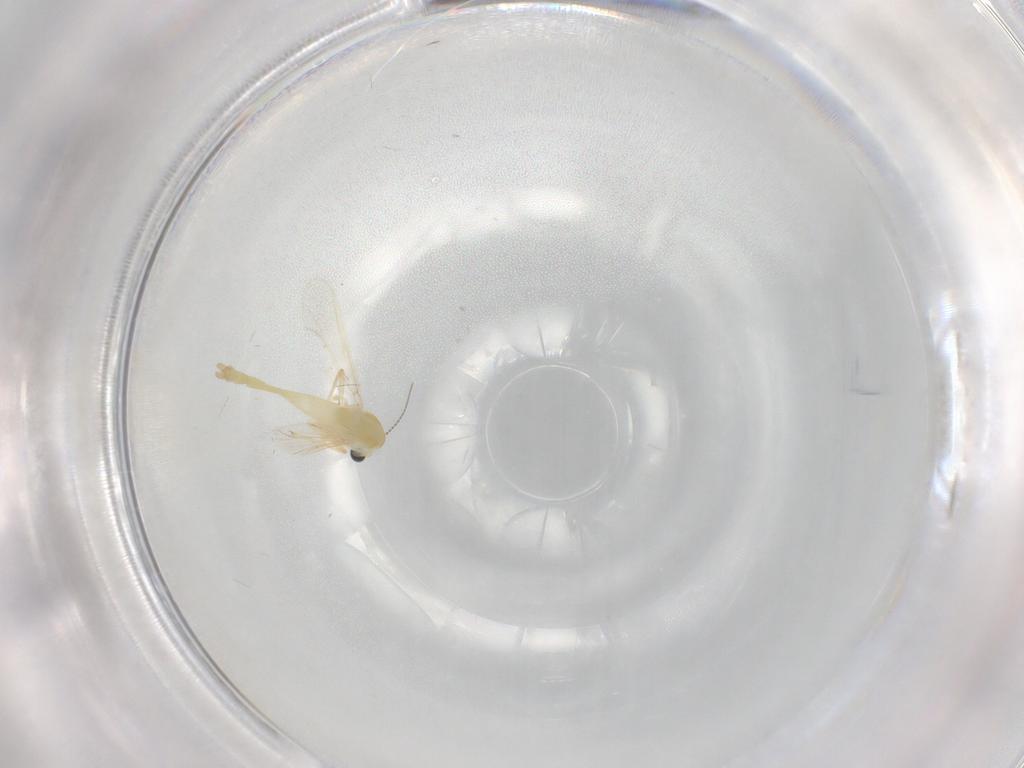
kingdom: Animalia
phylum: Arthropoda
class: Insecta
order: Diptera
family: Chironomidae
